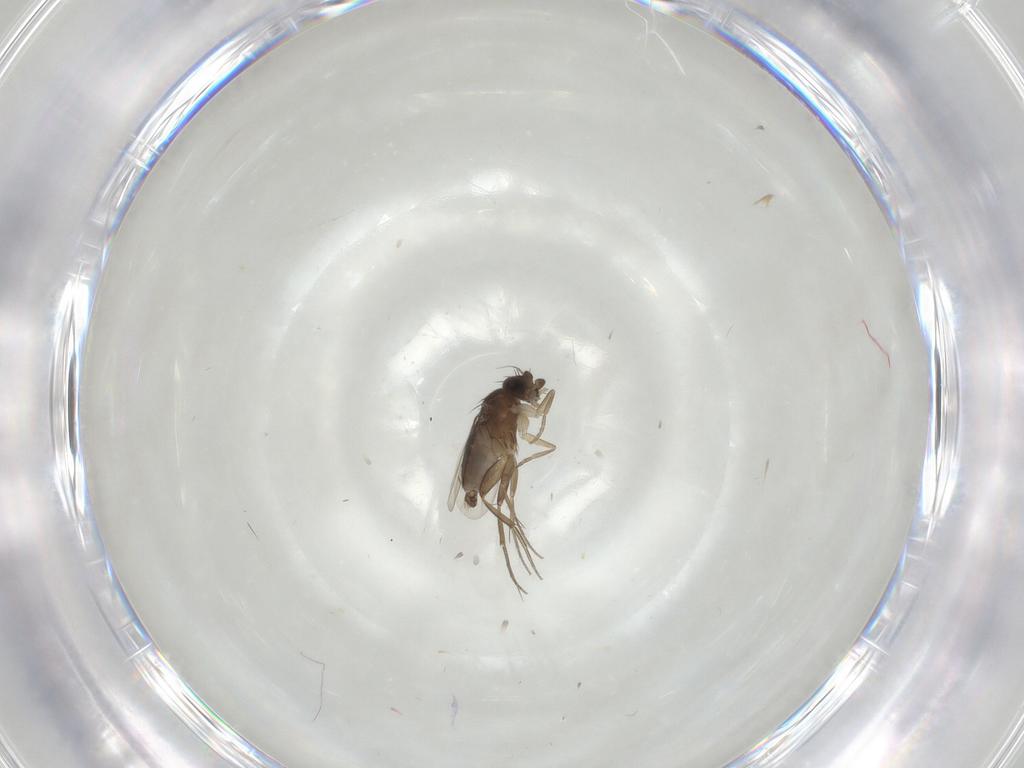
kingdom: Animalia
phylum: Arthropoda
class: Insecta
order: Diptera
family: Phoridae
